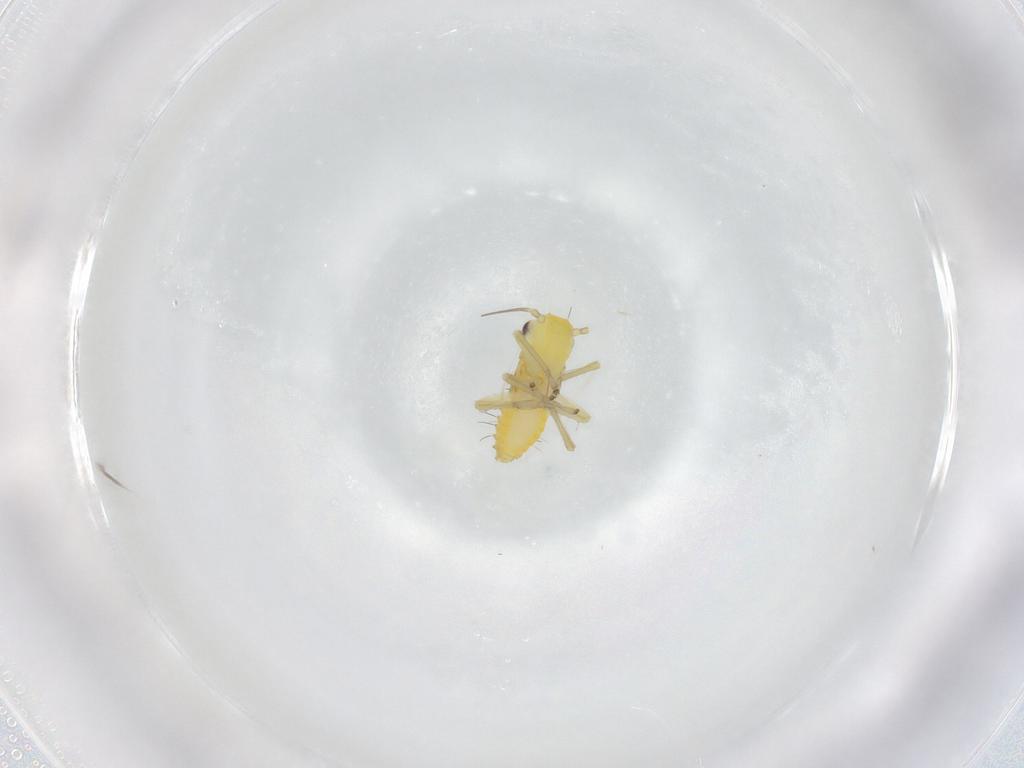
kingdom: Animalia
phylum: Arthropoda
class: Insecta
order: Hemiptera
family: Cicadellidae
